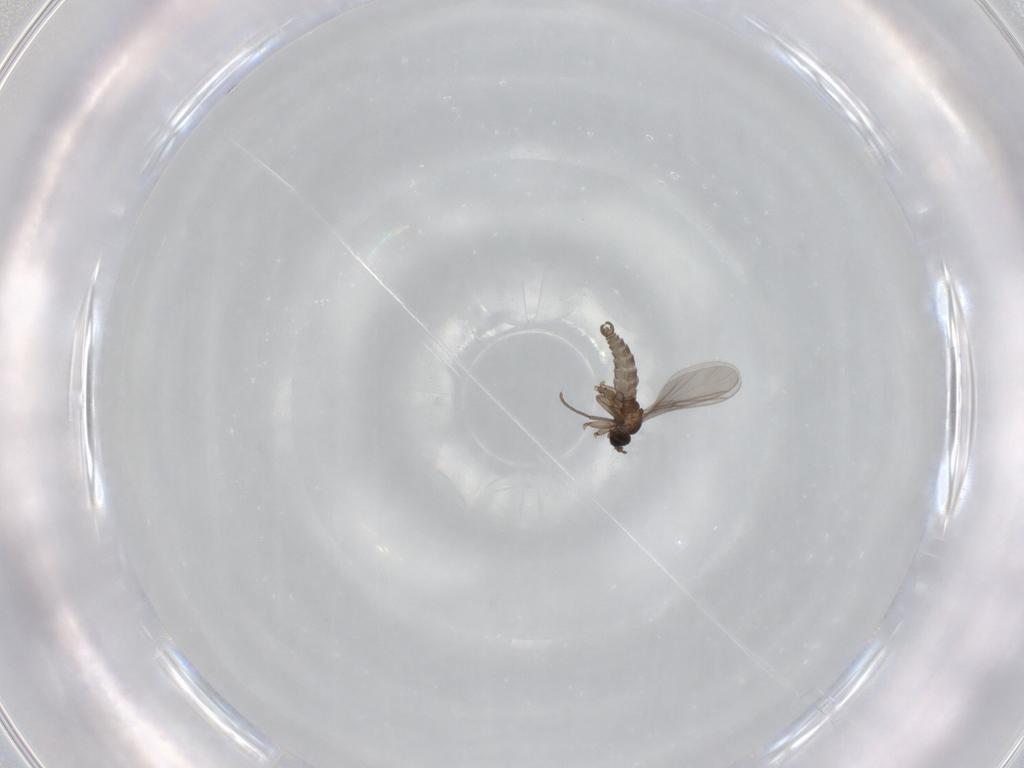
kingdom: Animalia
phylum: Arthropoda
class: Insecta
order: Diptera
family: Sciaridae
